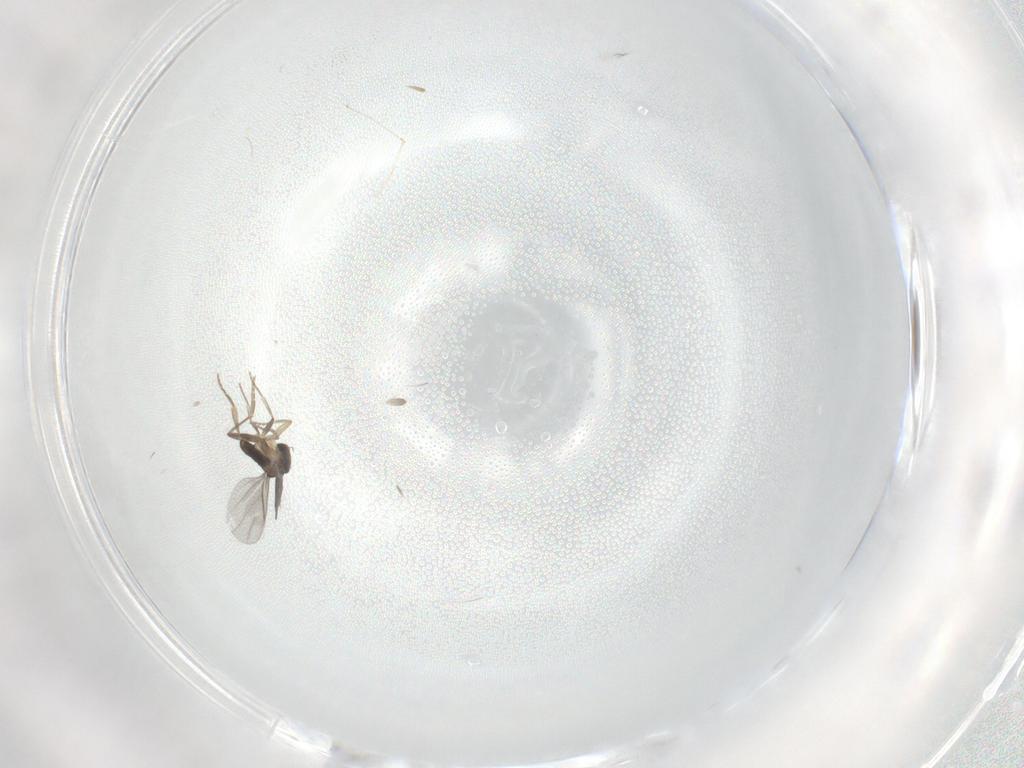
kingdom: Animalia
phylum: Arthropoda
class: Insecta
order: Diptera
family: Cecidomyiidae
